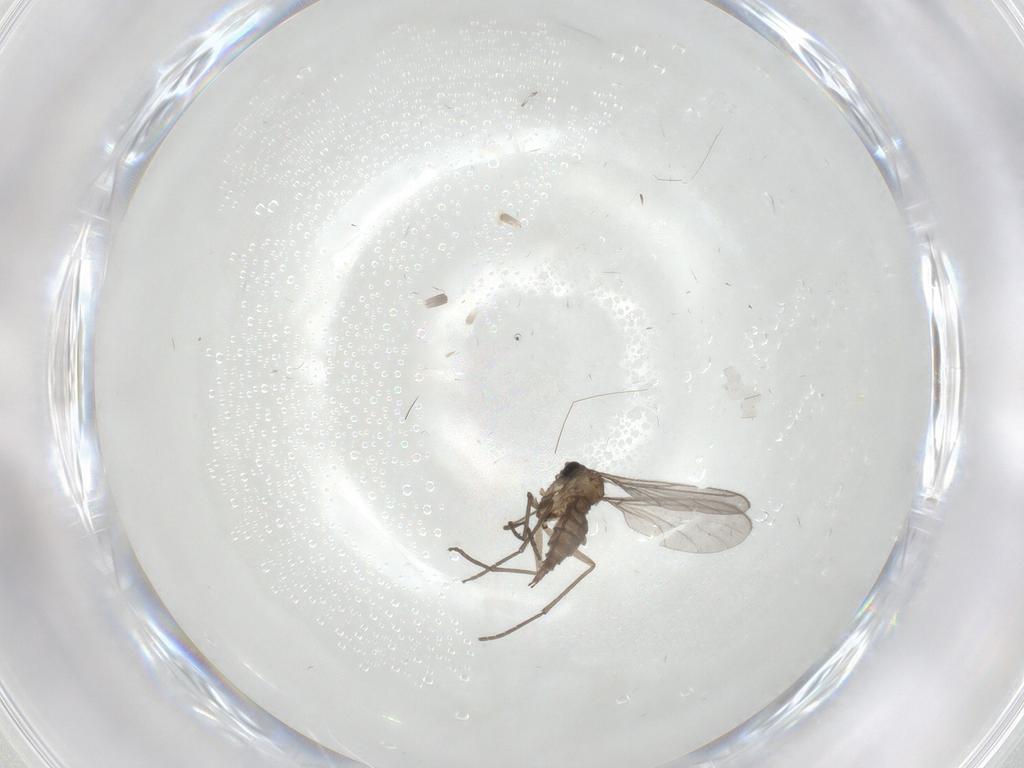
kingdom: Animalia
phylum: Arthropoda
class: Insecta
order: Diptera
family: Sciaridae
